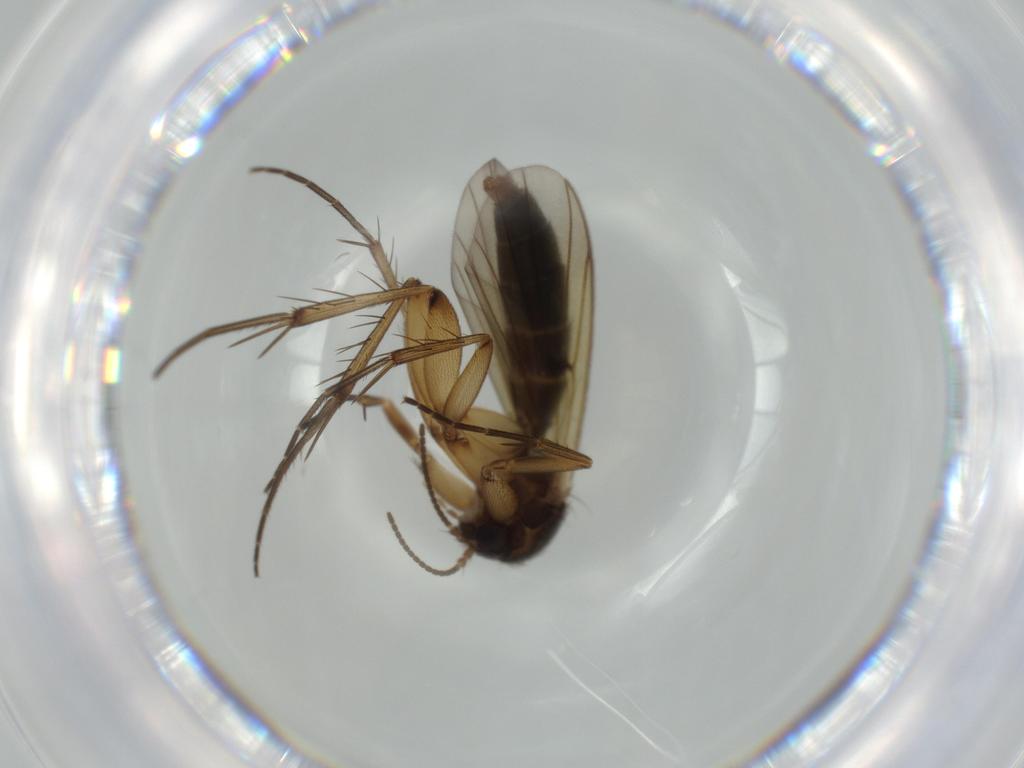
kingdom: Animalia
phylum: Arthropoda
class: Insecta
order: Diptera
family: Mycetophilidae
